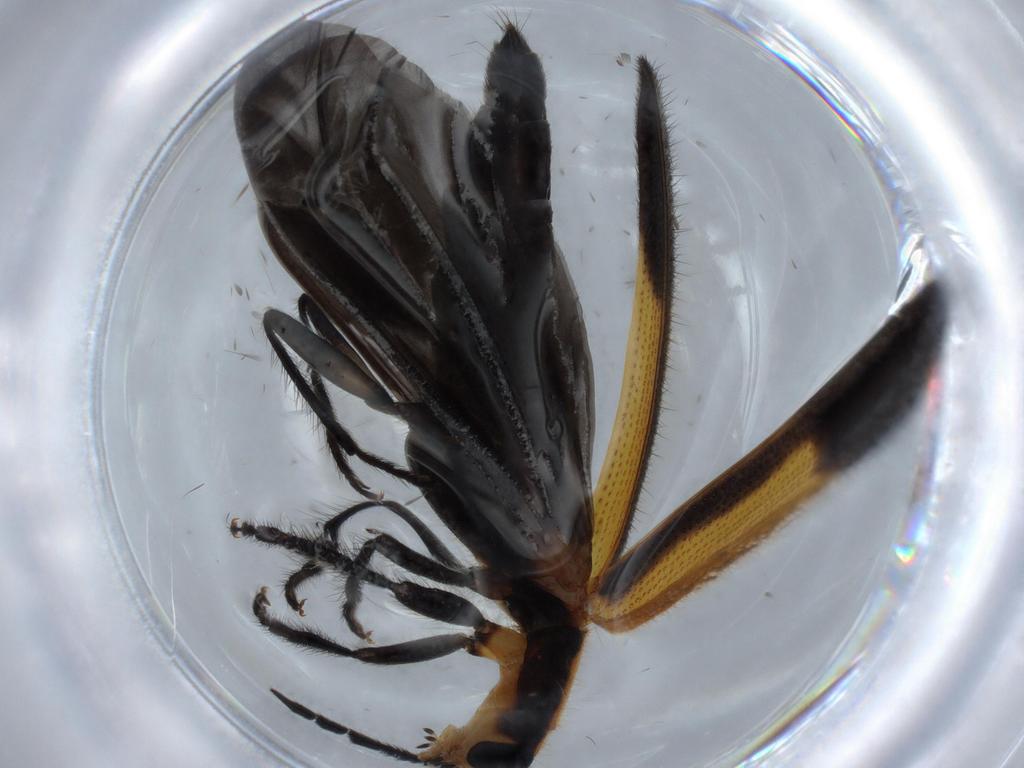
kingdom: Animalia
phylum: Arthropoda
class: Insecta
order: Coleoptera
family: Cleridae
